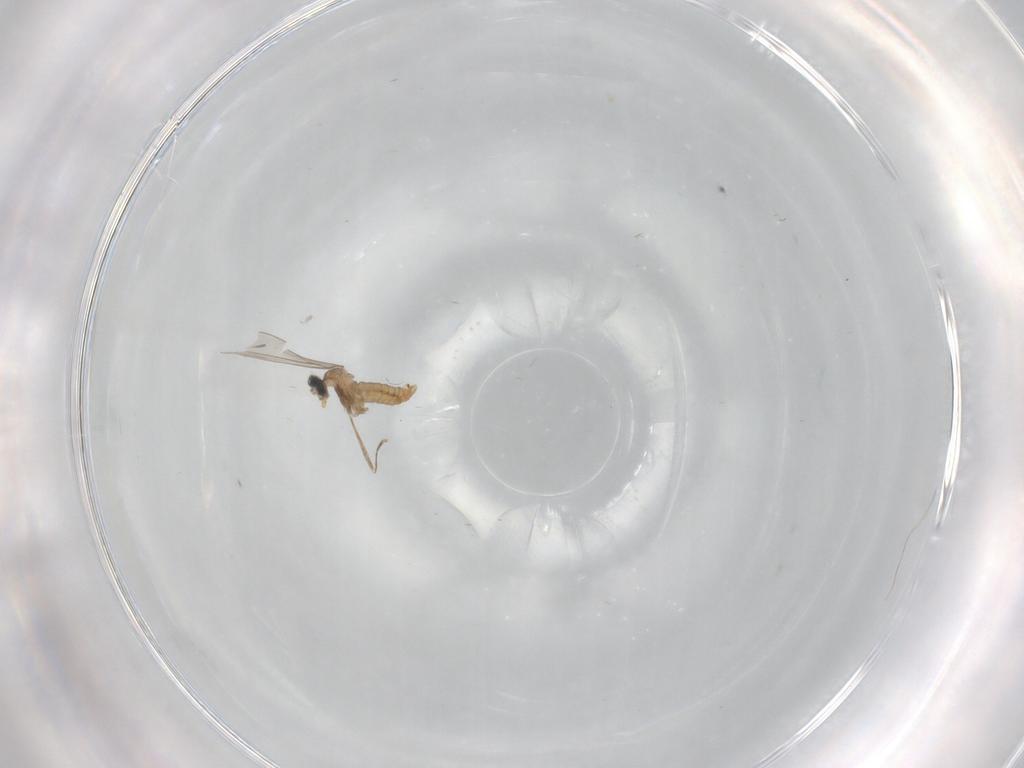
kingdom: Animalia
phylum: Arthropoda
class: Insecta
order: Diptera
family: Cecidomyiidae
